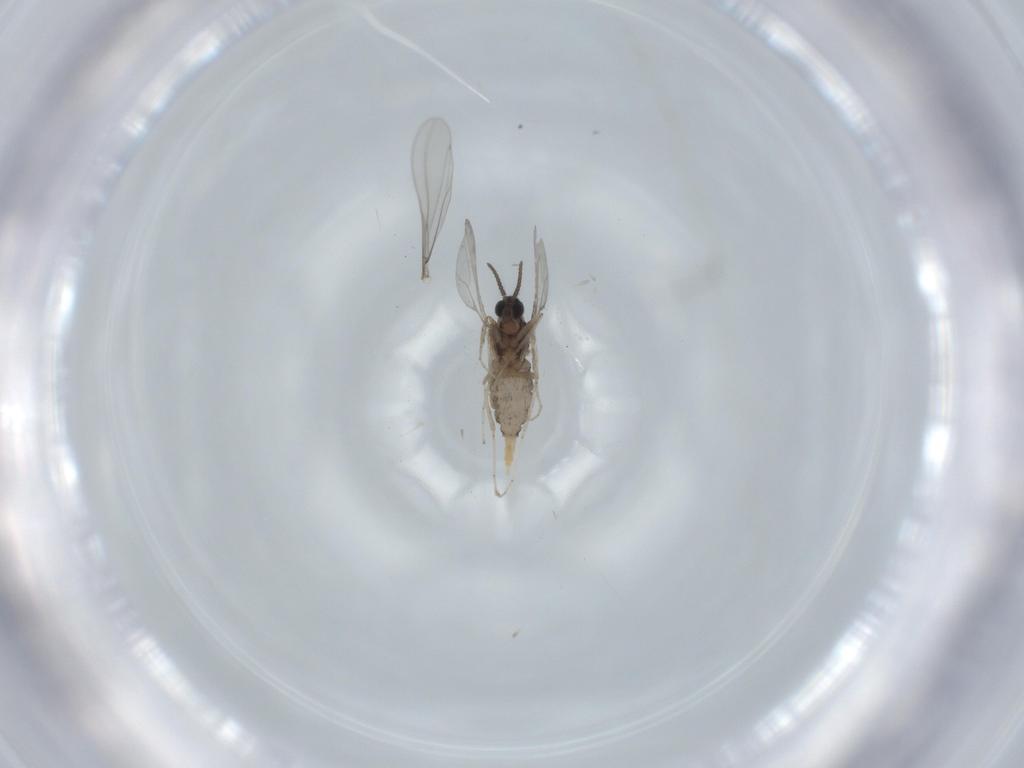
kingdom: Animalia
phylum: Arthropoda
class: Insecta
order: Diptera
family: Cecidomyiidae
